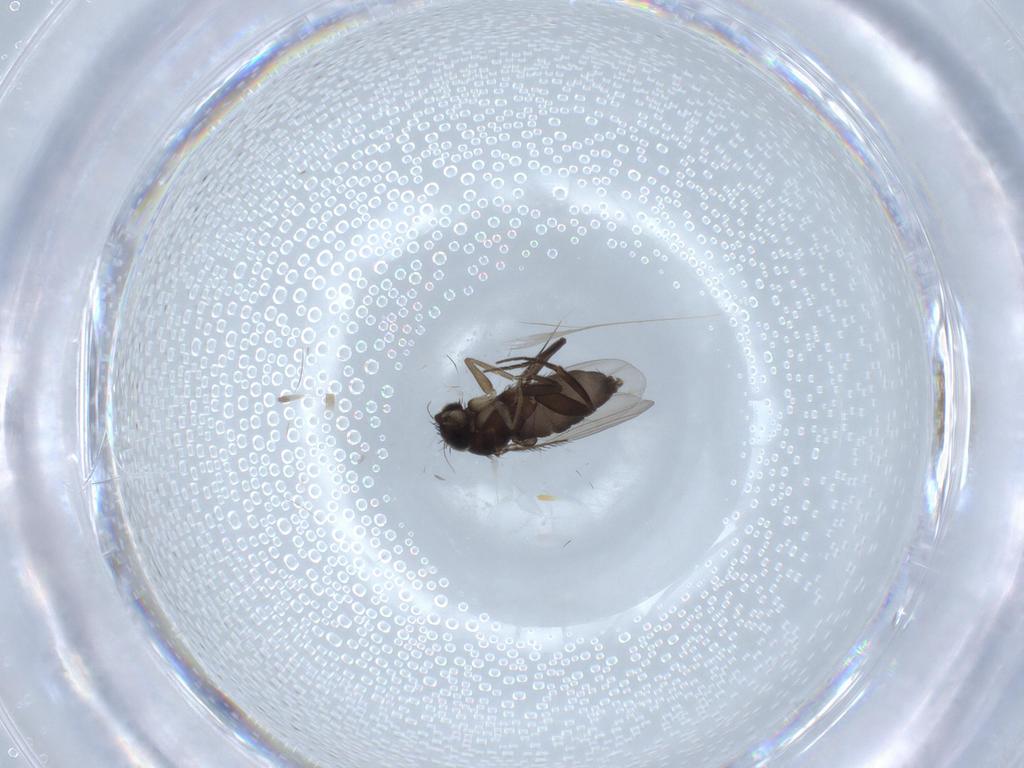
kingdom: Animalia
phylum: Arthropoda
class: Insecta
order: Diptera
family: Phoridae
